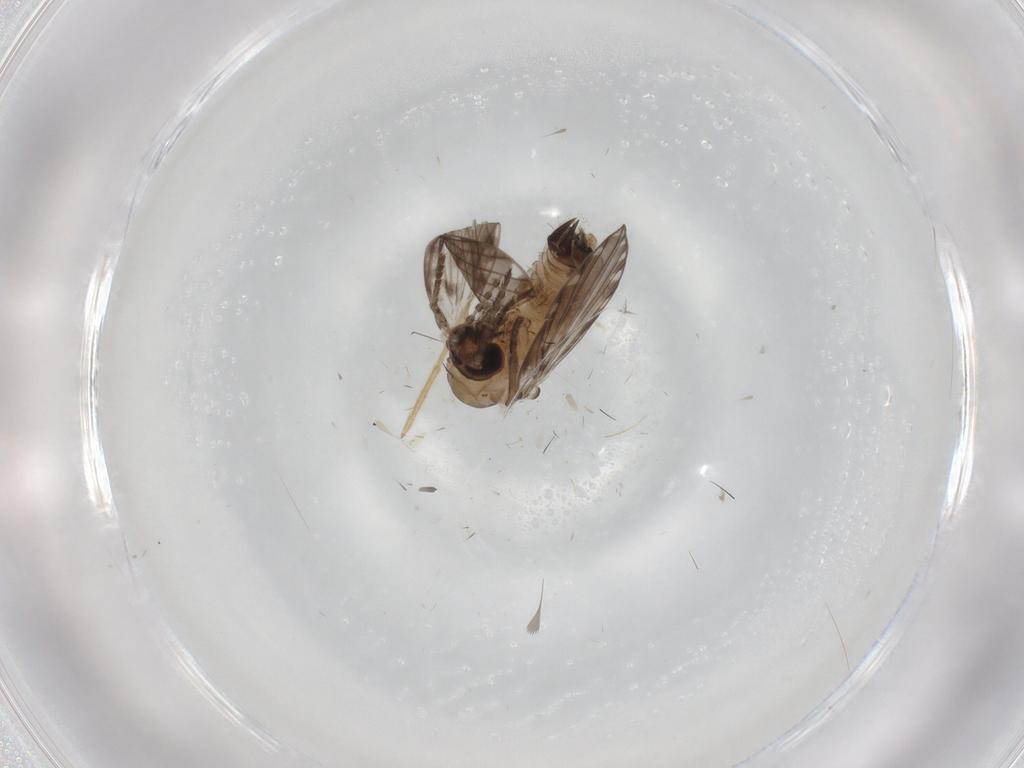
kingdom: Animalia
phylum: Arthropoda
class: Insecta
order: Diptera
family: Psychodidae
